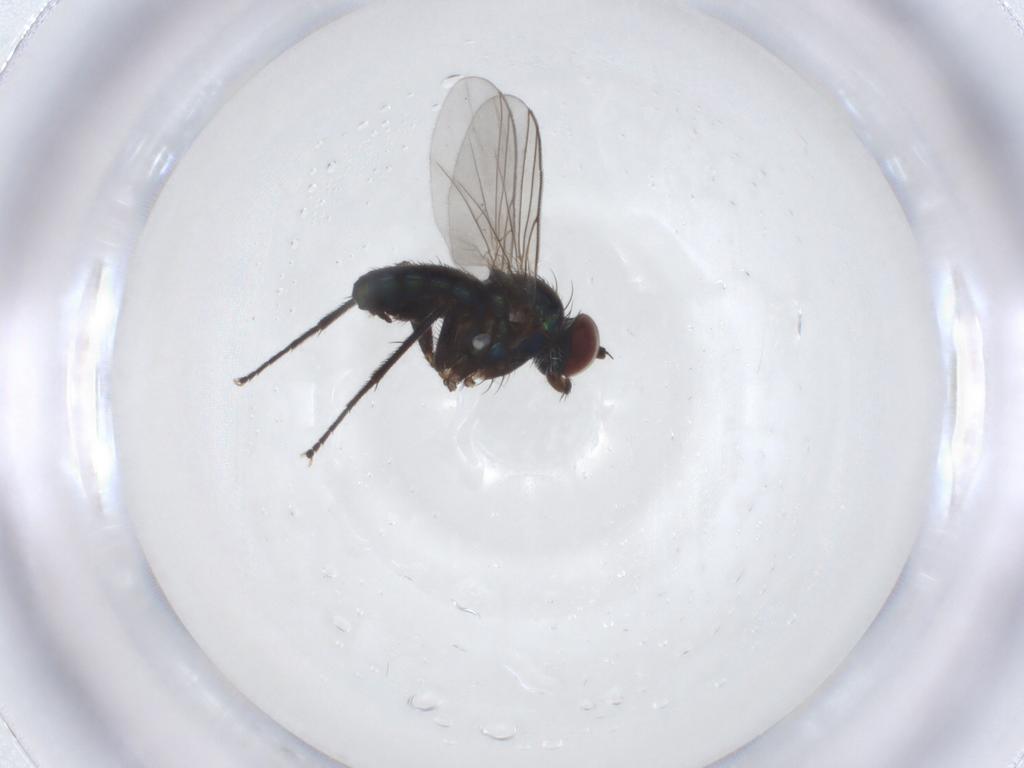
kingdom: Animalia
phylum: Arthropoda
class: Insecta
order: Diptera
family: Dolichopodidae
